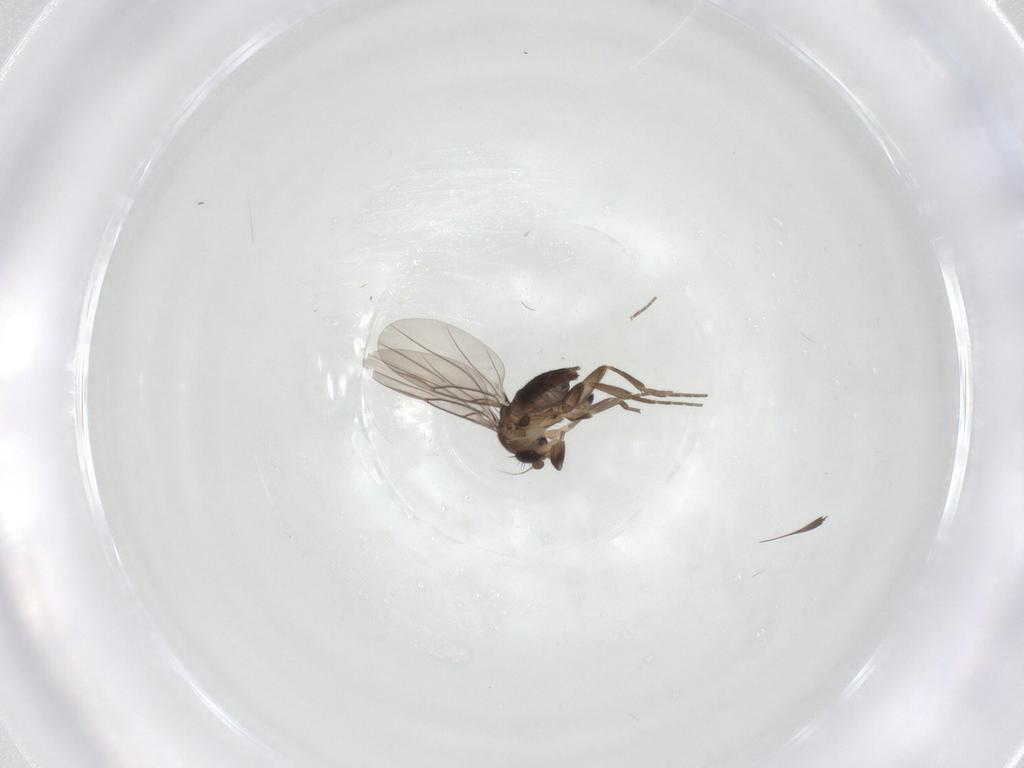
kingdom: Animalia
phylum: Arthropoda
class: Insecta
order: Diptera
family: Phoridae
